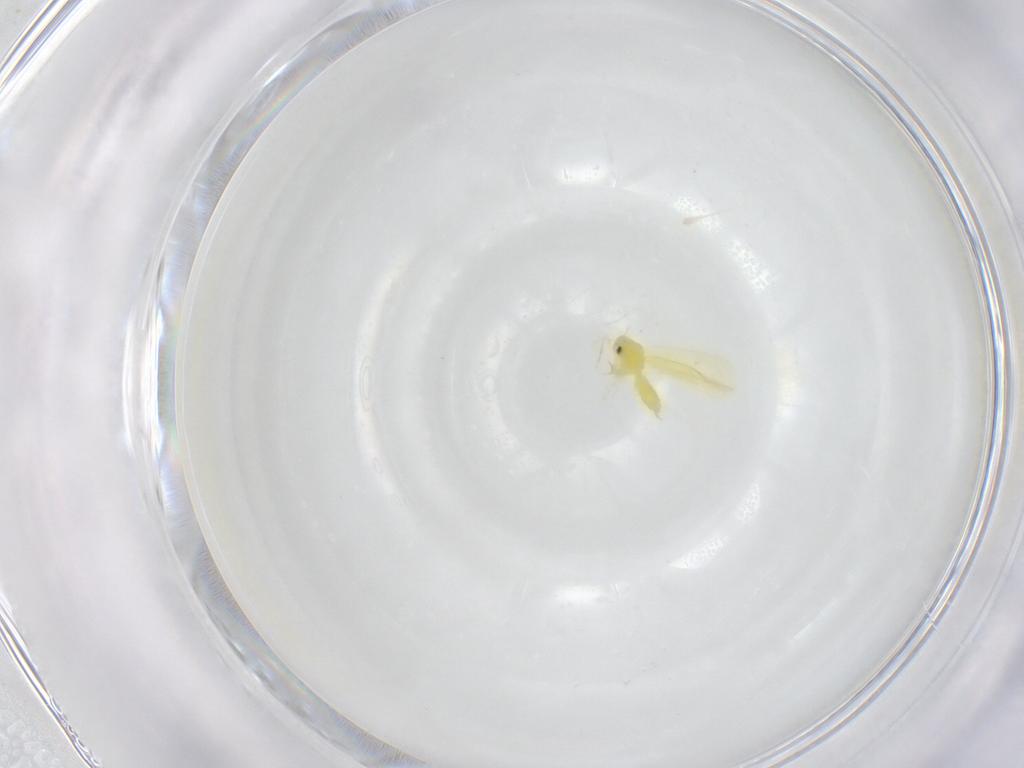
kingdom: Animalia
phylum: Arthropoda
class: Insecta
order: Hemiptera
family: Aleyrodidae
